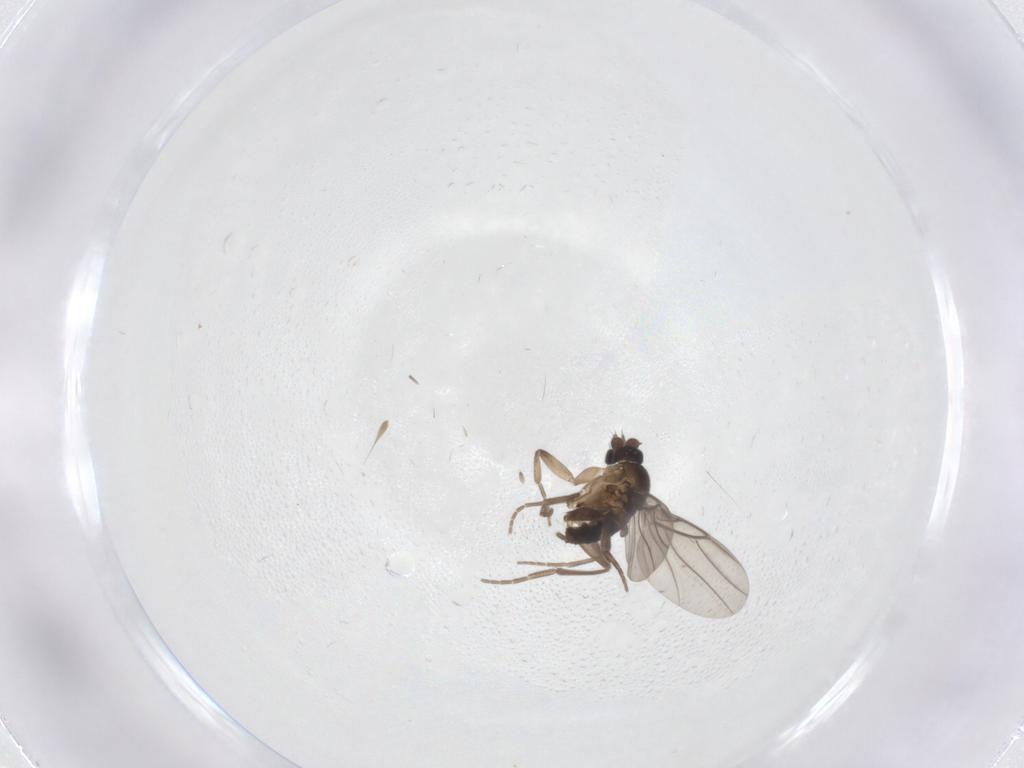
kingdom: Animalia
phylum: Arthropoda
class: Insecta
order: Diptera
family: Phoridae
